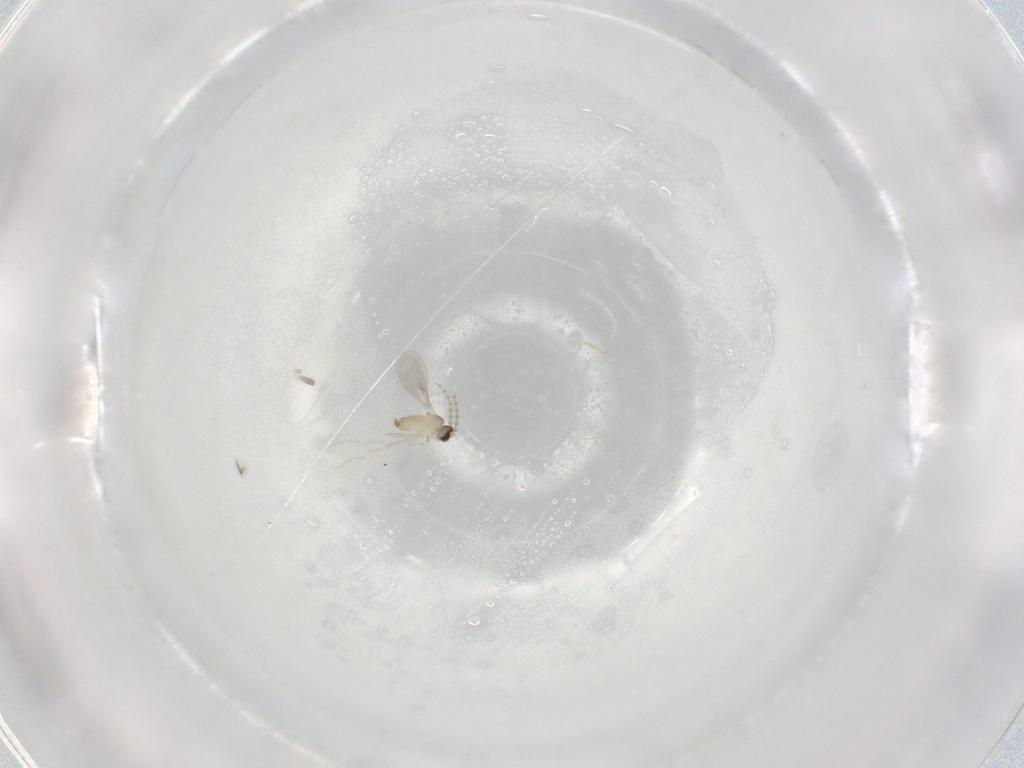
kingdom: Animalia
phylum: Arthropoda
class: Insecta
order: Diptera
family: Cecidomyiidae
